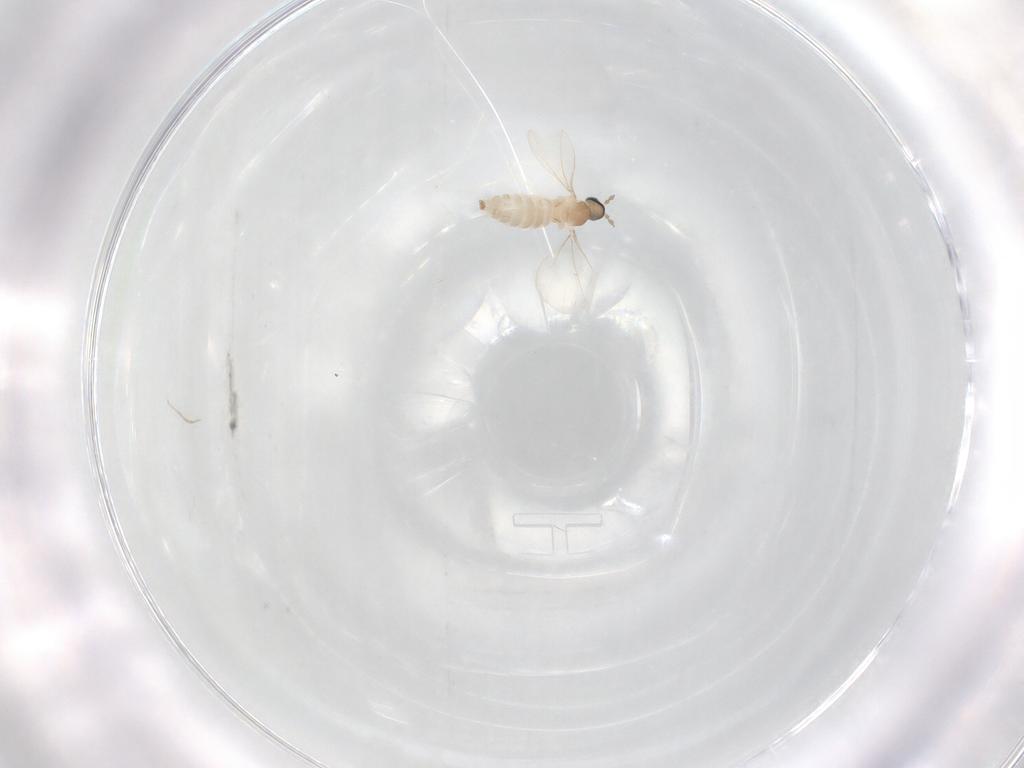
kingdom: Animalia
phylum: Arthropoda
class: Insecta
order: Diptera
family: Cecidomyiidae
